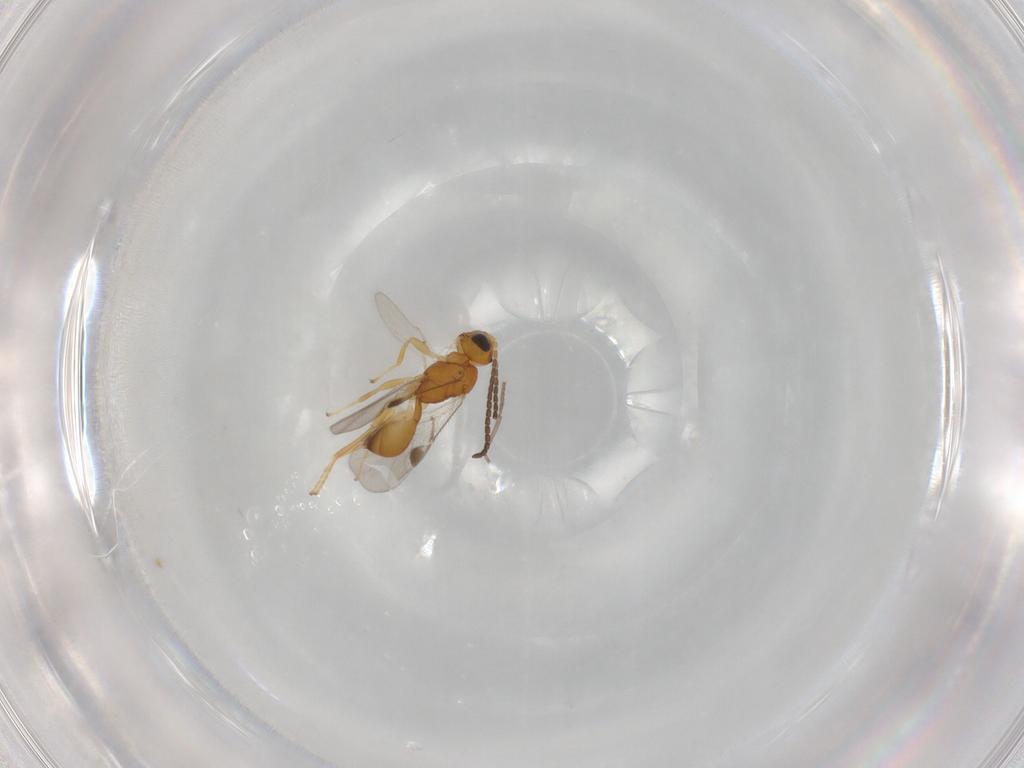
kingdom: Animalia
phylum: Arthropoda
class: Insecta
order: Hymenoptera
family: Braconidae
